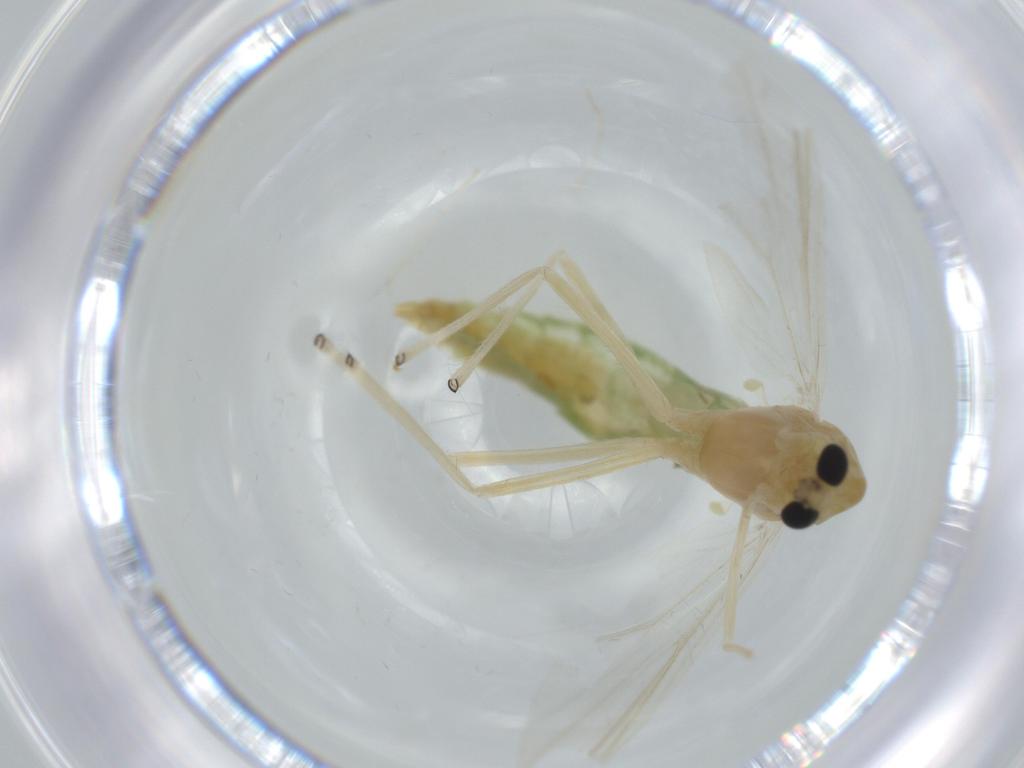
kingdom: Animalia
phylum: Arthropoda
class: Insecta
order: Diptera
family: Chironomidae
